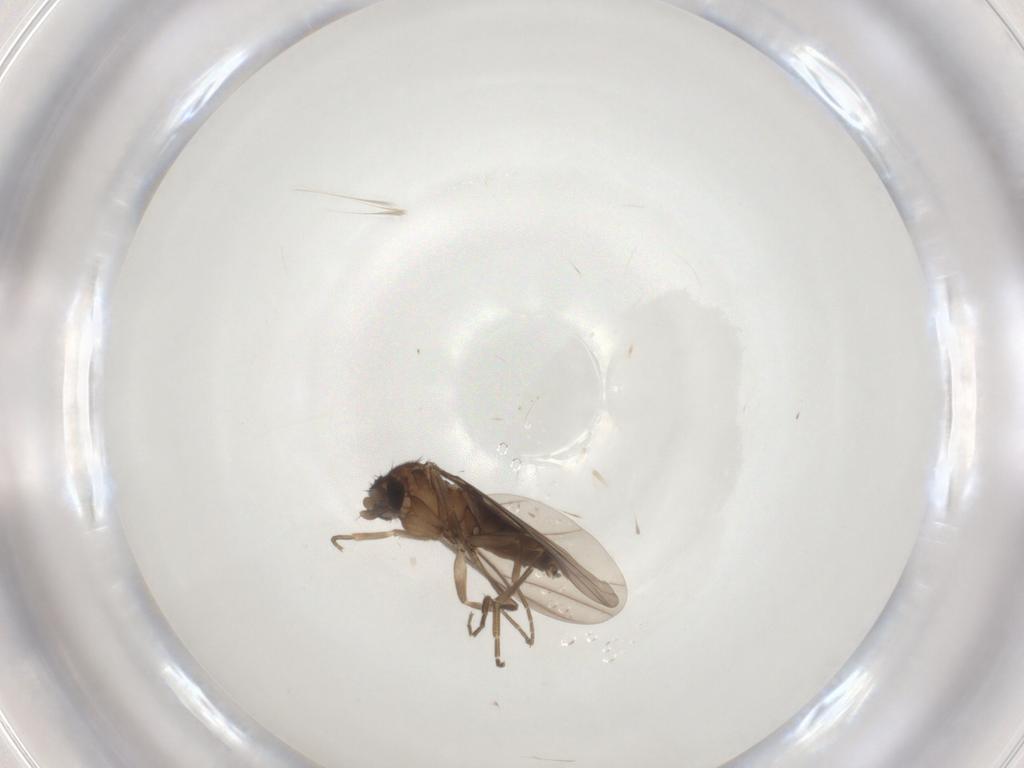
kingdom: Animalia
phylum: Arthropoda
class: Insecta
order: Diptera
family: Phoridae
